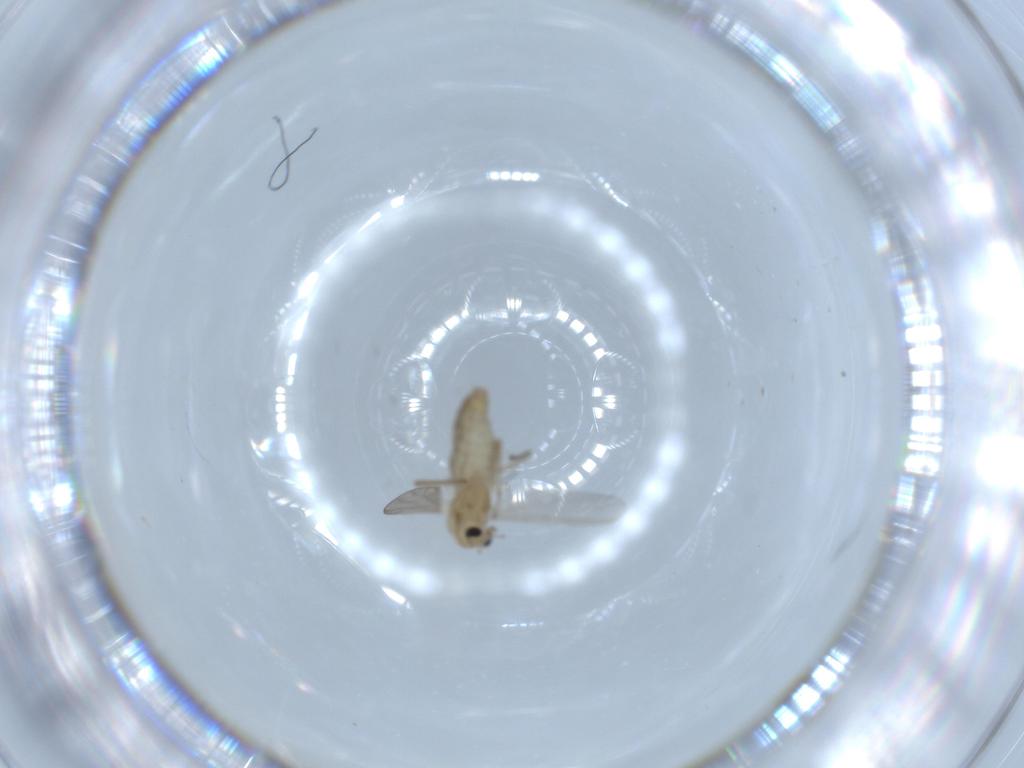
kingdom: Animalia
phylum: Arthropoda
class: Insecta
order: Diptera
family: Chironomidae
